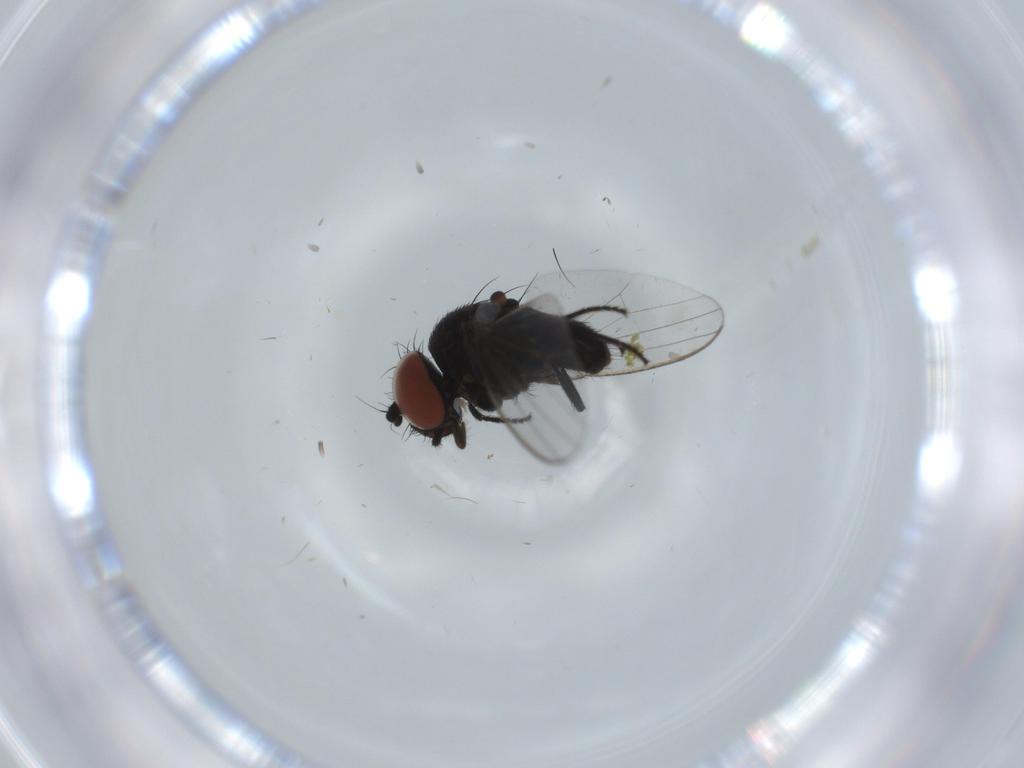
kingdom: Animalia
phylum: Arthropoda
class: Insecta
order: Diptera
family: Milichiidae
